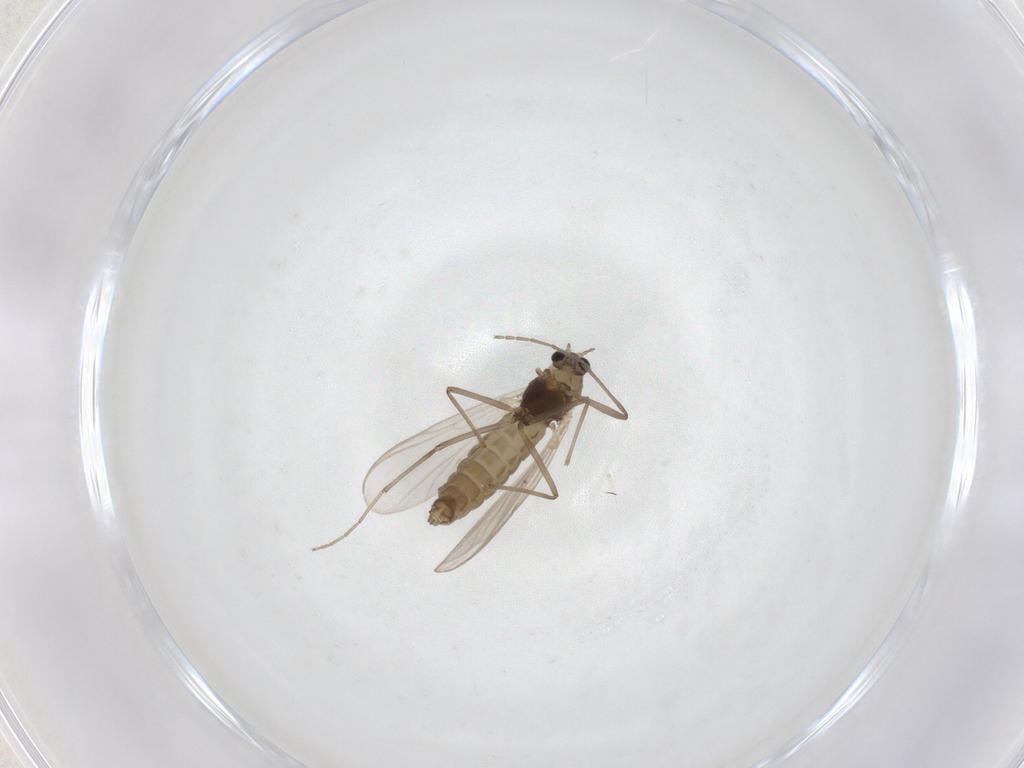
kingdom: Animalia
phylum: Arthropoda
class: Insecta
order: Diptera
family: Chironomidae
